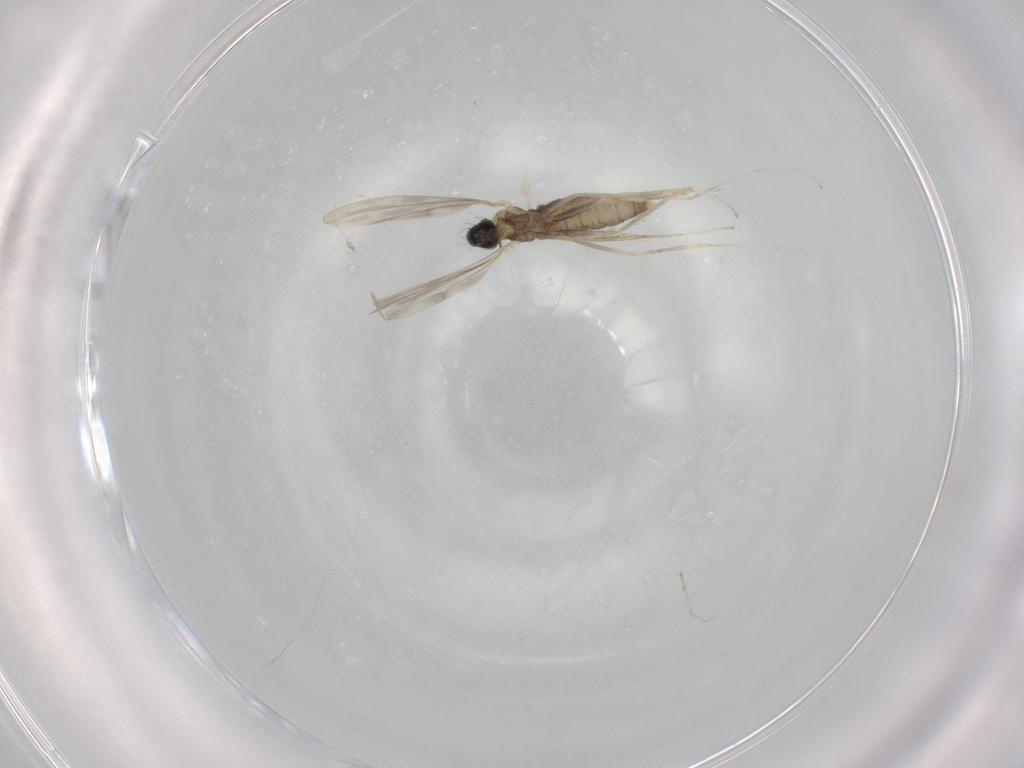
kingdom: Animalia
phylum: Arthropoda
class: Insecta
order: Diptera
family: Cecidomyiidae
